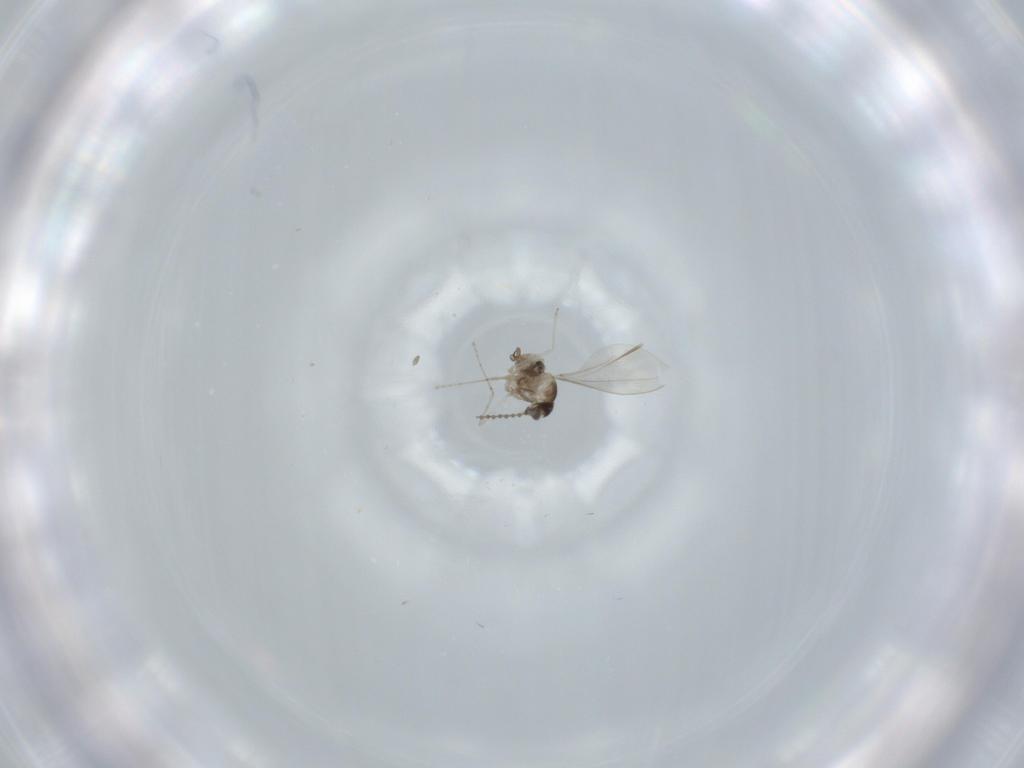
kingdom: Animalia
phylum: Arthropoda
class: Insecta
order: Diptera
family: Cecidomyiidae
